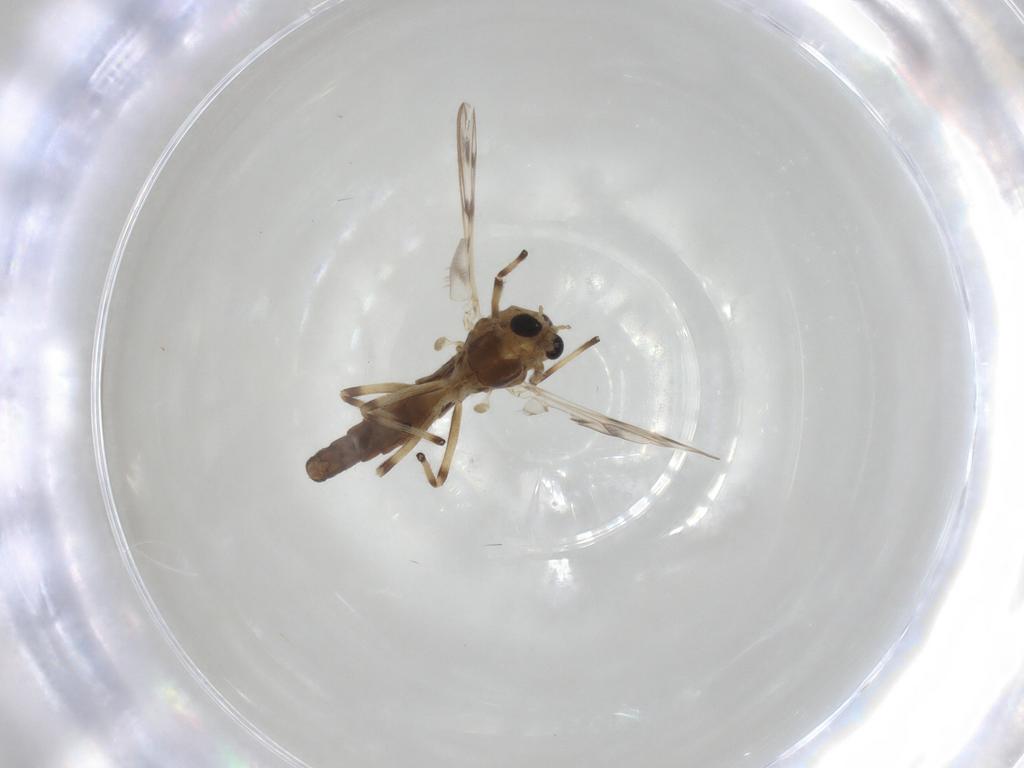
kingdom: Animalia
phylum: Arthropoda
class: Insecta
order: Diptera
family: Chironomidae
